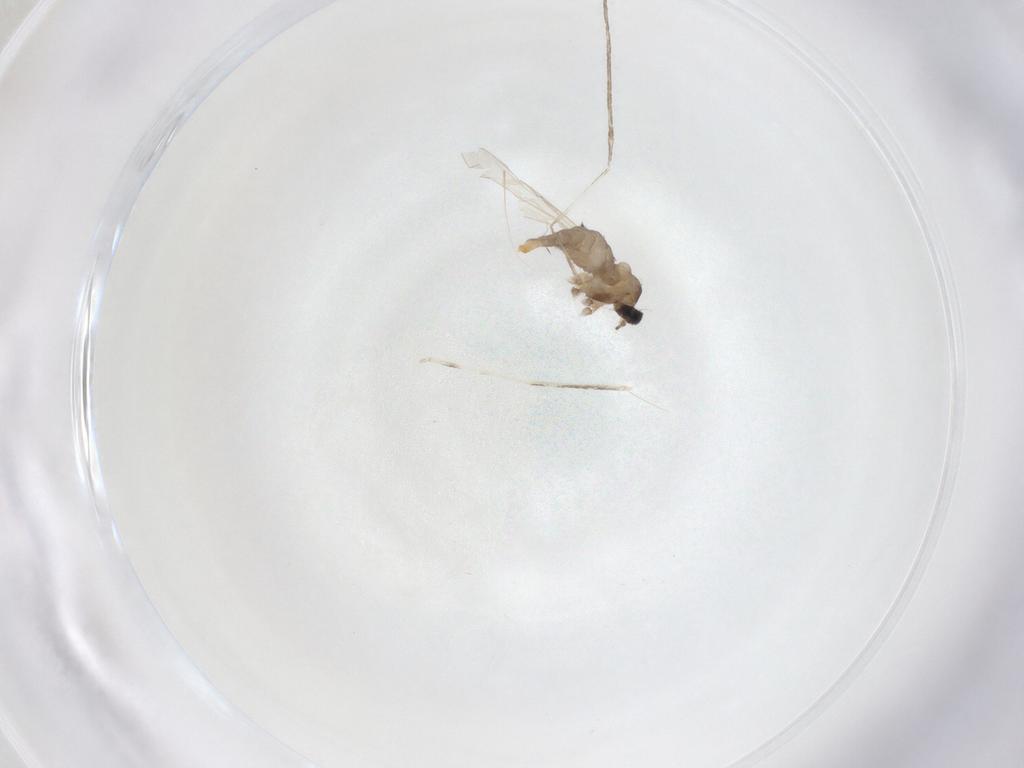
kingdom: Animalia
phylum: Arthropoda
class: Insecta
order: Diptera
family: Cecidomyiidae
